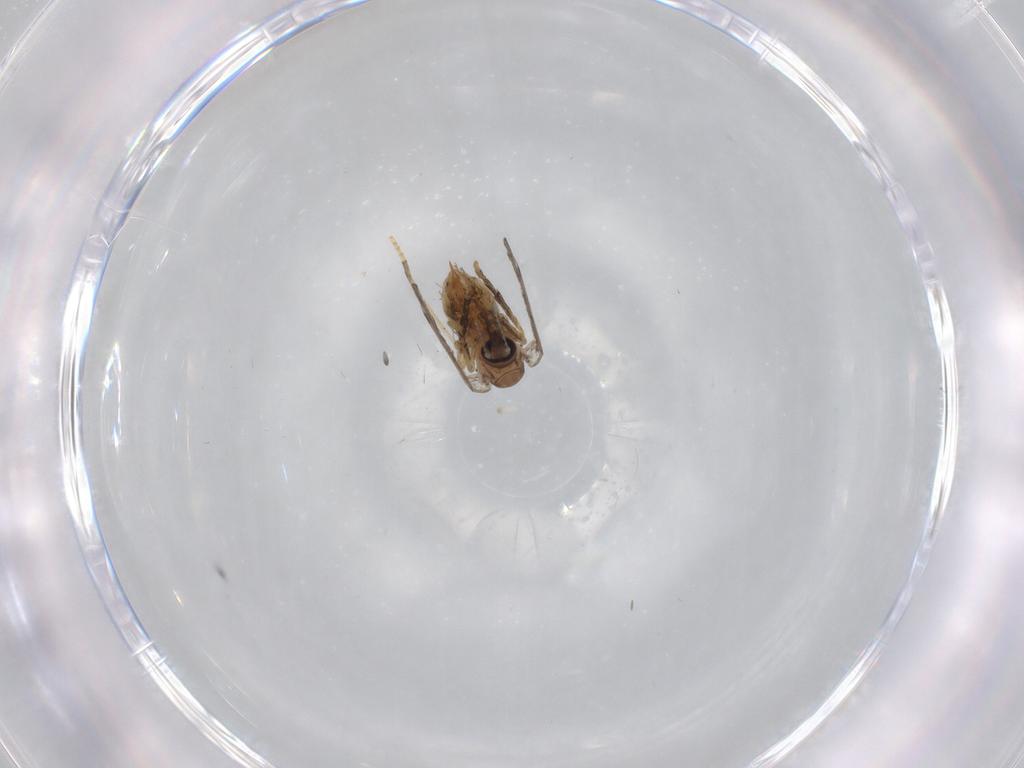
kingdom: Animalia
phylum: Arthropoda
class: Insecta
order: Diptera
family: Psychodidae
